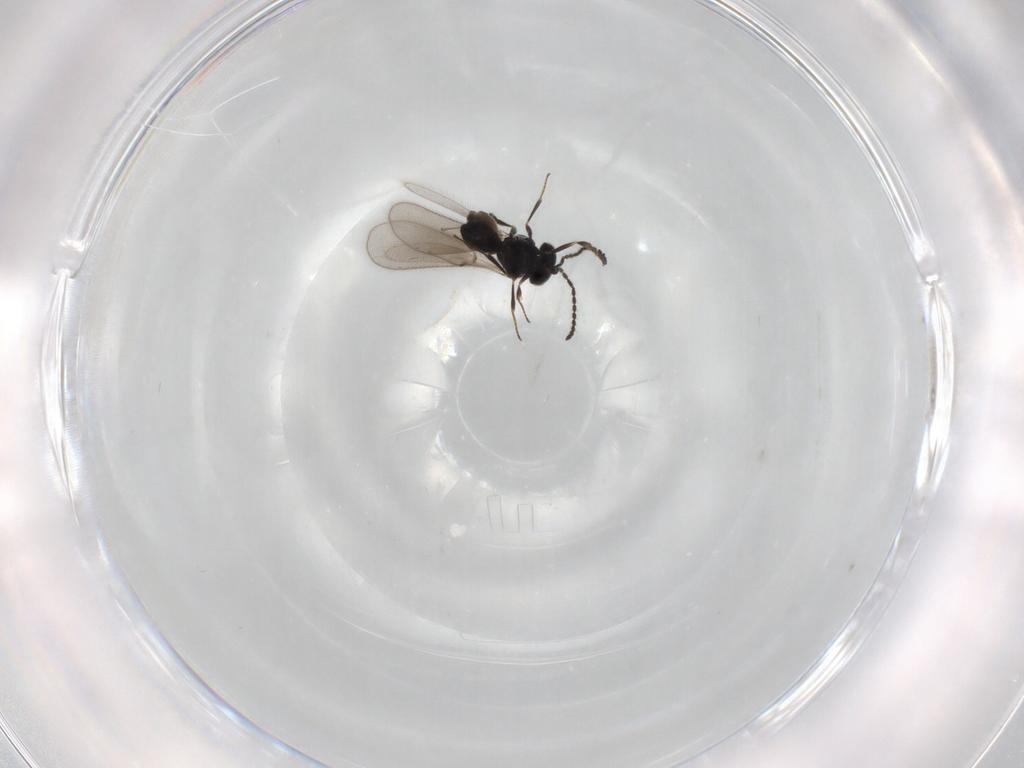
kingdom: Animalia
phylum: Arthropoda
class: Insecta
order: Hymenoptera
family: Scelionidae
